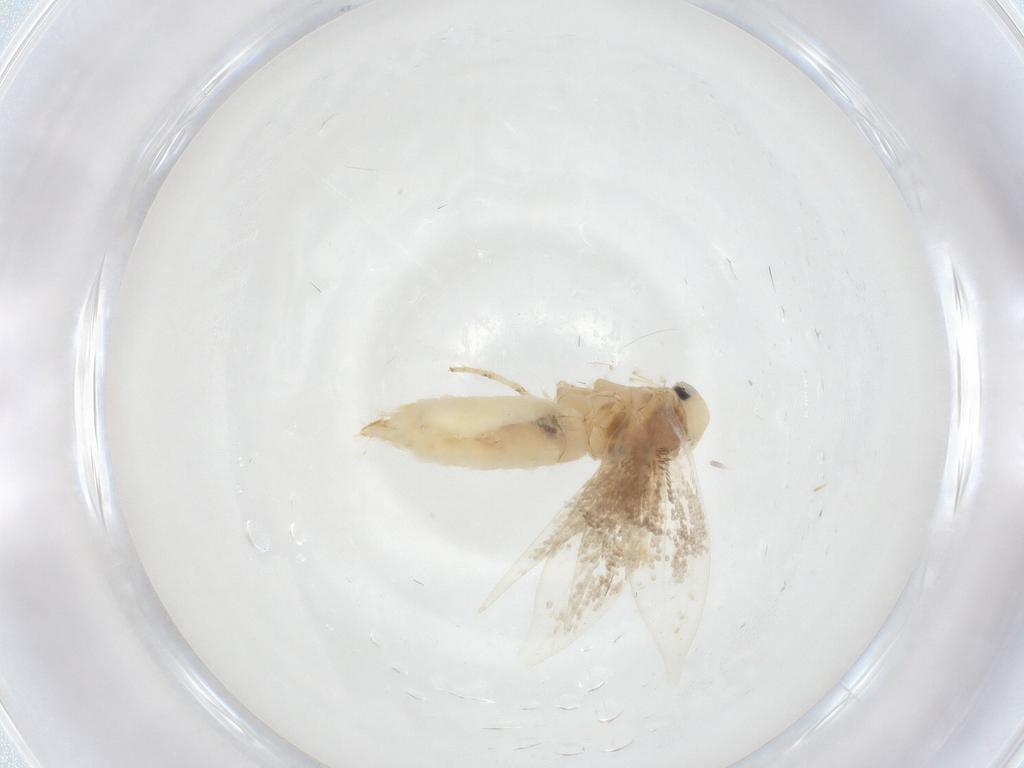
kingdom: Animalia
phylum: Arthropoda
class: Insecta
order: Lepidoptera
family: Gracillariidae
